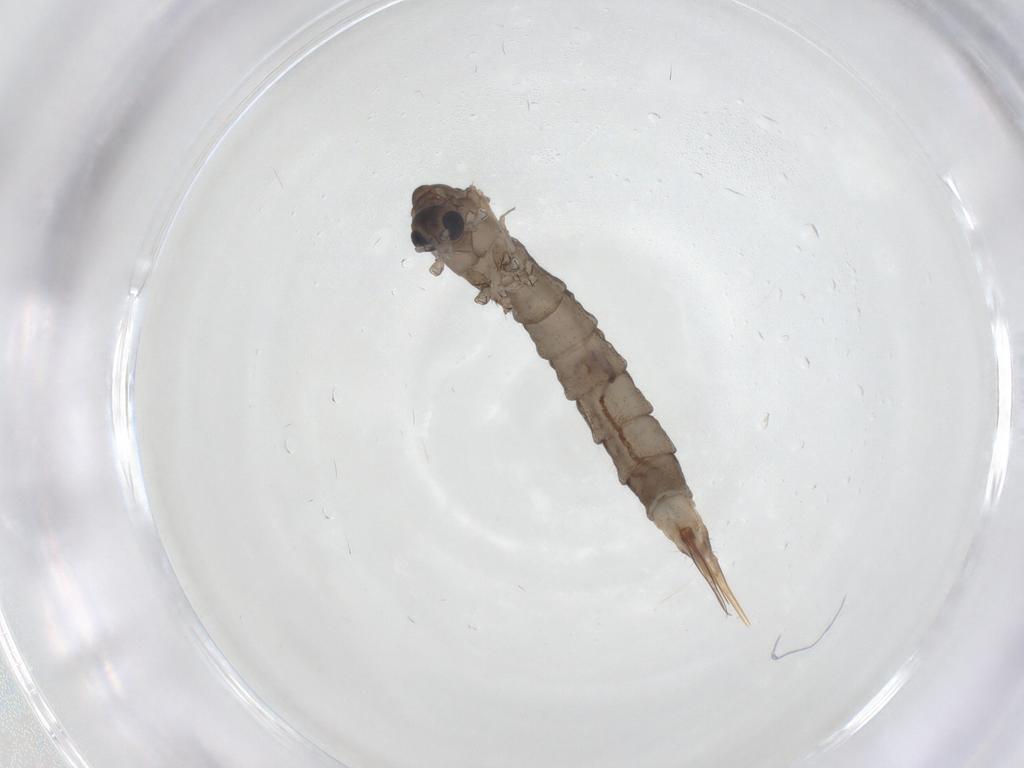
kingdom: Animalia
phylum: Arthropoda
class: Insecta
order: Diptera
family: Limoniidae
